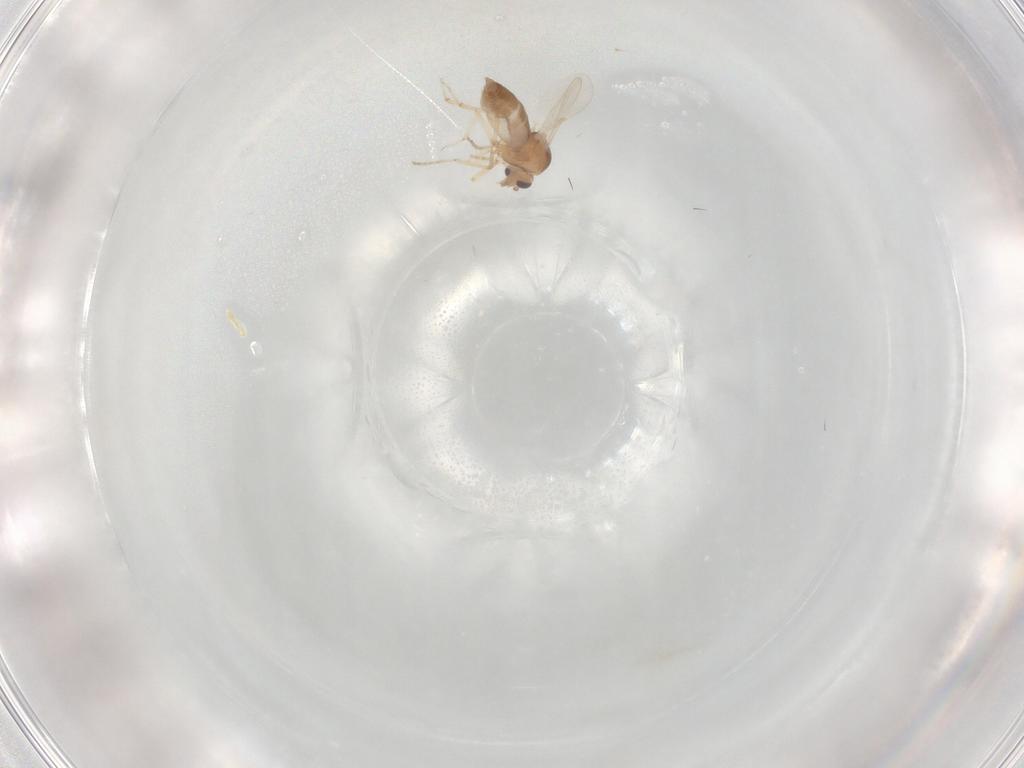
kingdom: Animalia
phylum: Arthropoda
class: Insecta
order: Diptera
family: Ceratopogonidae
